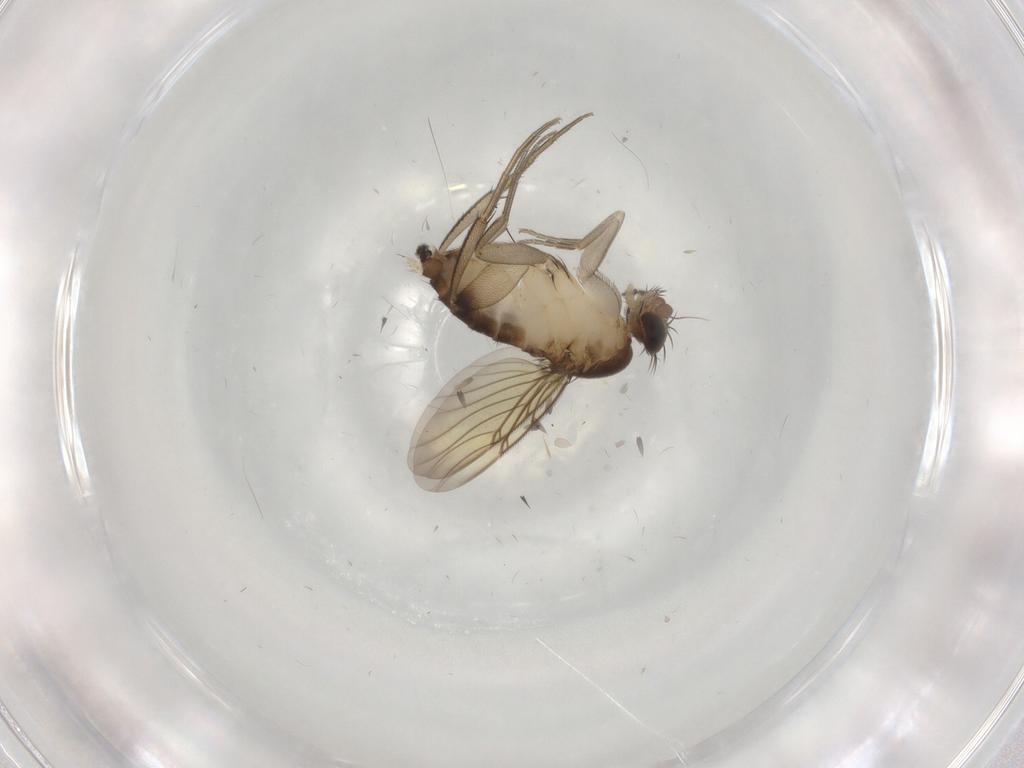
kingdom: Animalia
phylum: Arthropoda
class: Insecta
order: Diptera
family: Phoridae
